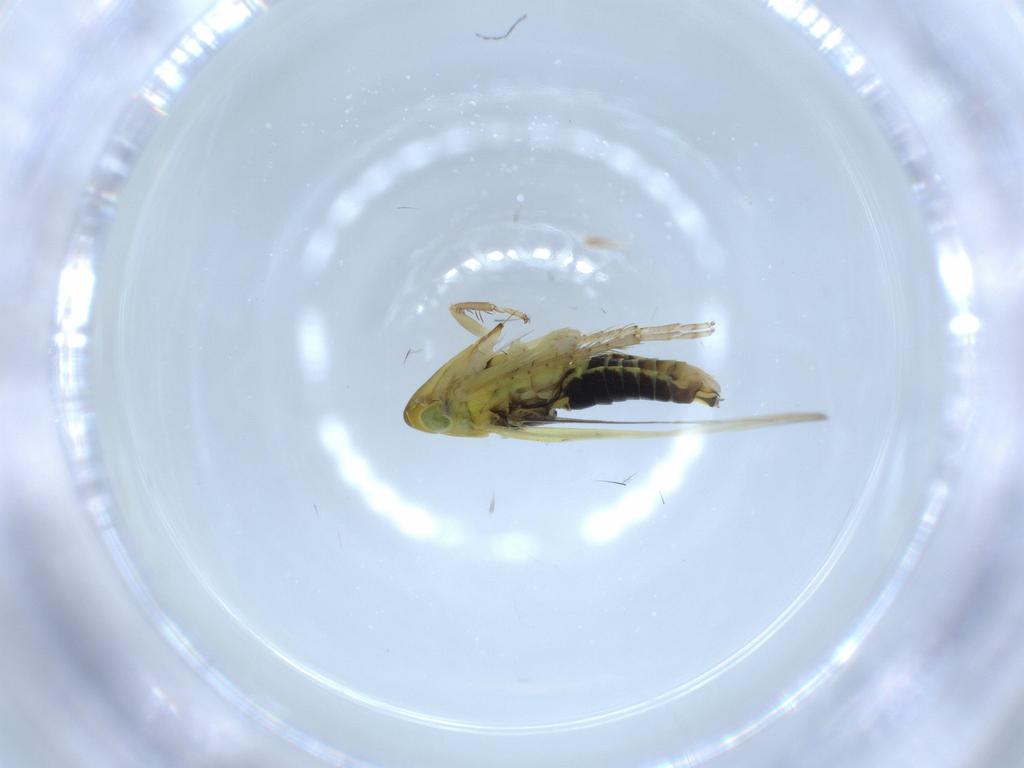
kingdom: Animalia
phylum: Arthropoda
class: Insecta
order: Hemiptera
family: Cicadellidae
